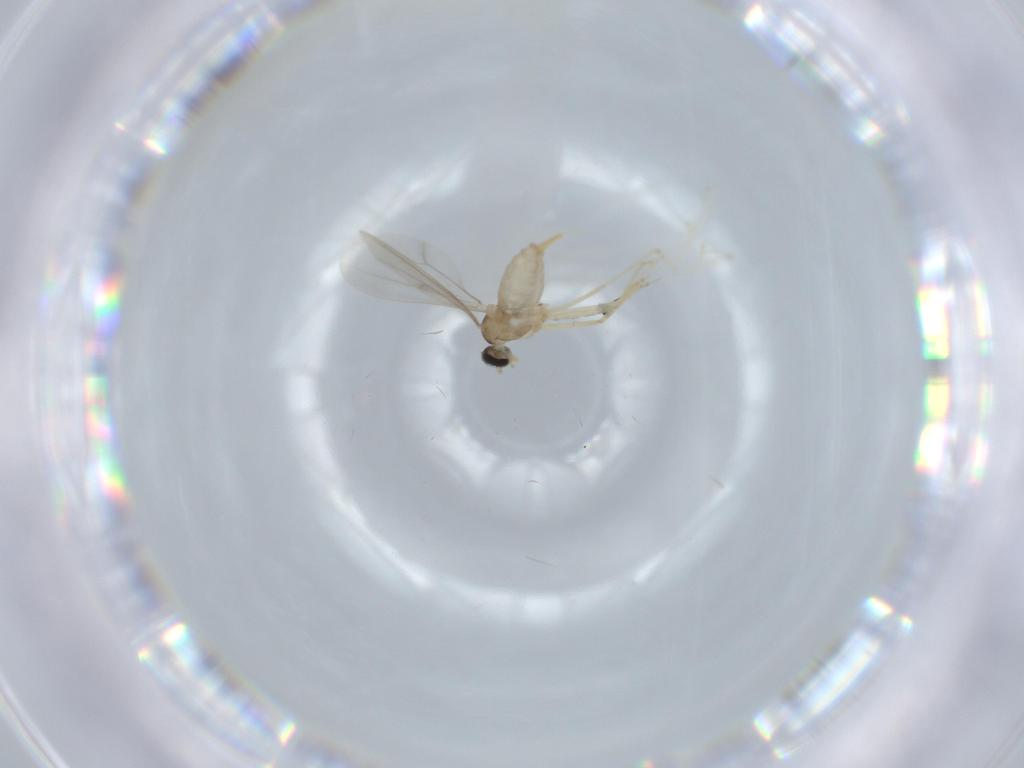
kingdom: Animalia
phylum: Arthropoda
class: Insecta
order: Diptera
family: Cecidomyiidae
